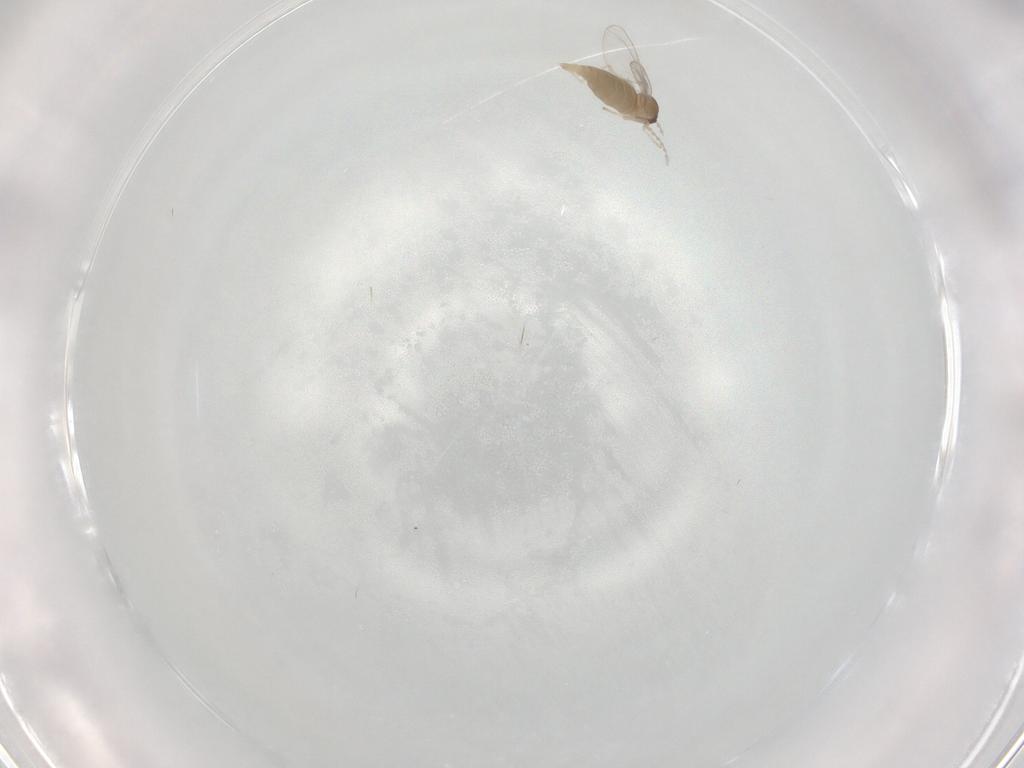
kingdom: Animalia
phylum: Arthropoda
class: Insecta
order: Diptera
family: Cecidomyiidae
